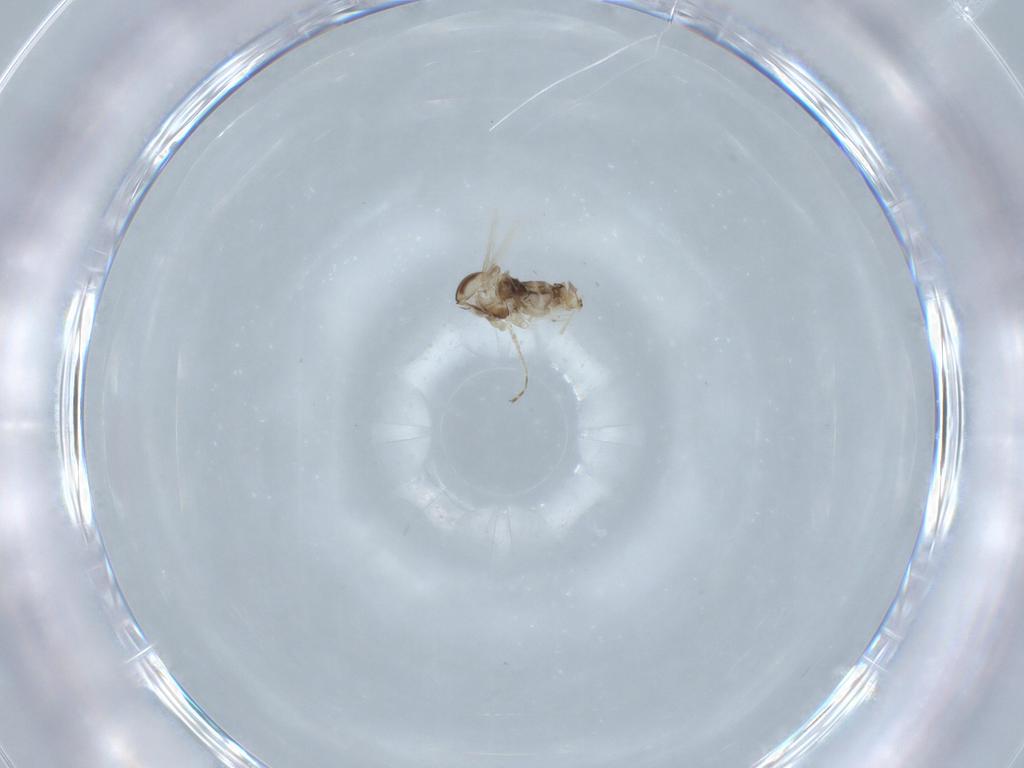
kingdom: Animalia
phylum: Arthropoda
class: Insecta
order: Diptera
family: Cecidomyiidae
